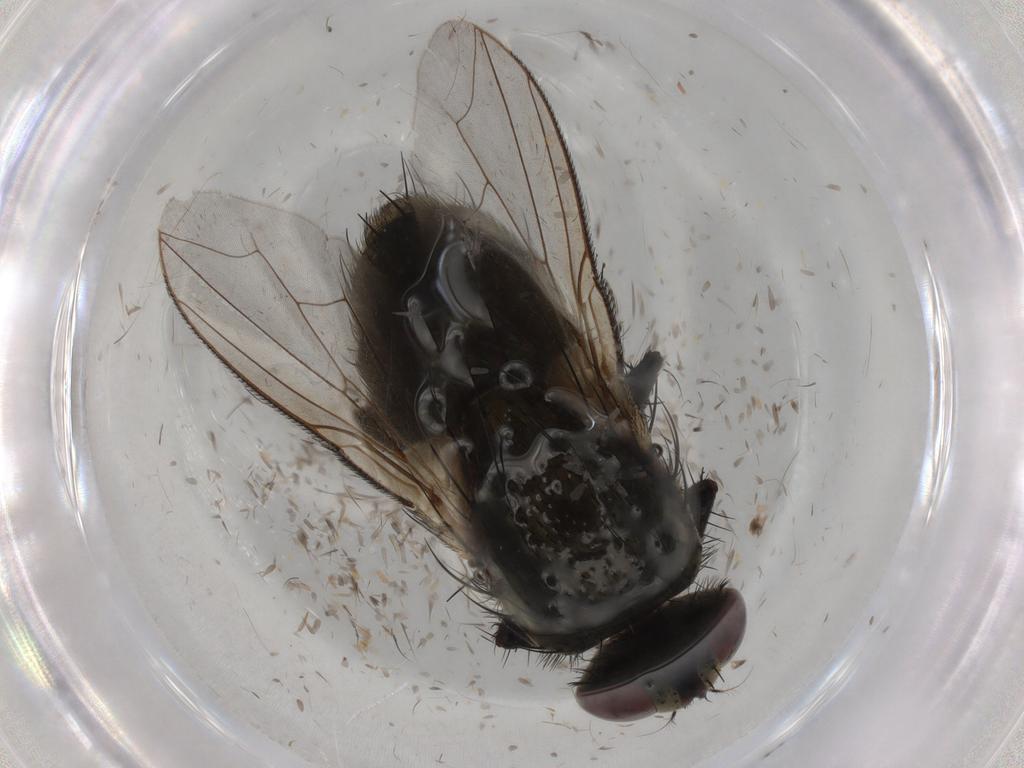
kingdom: Animalia
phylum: Arthropoda
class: Insecta
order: Diptera
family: Sarcophagidae
